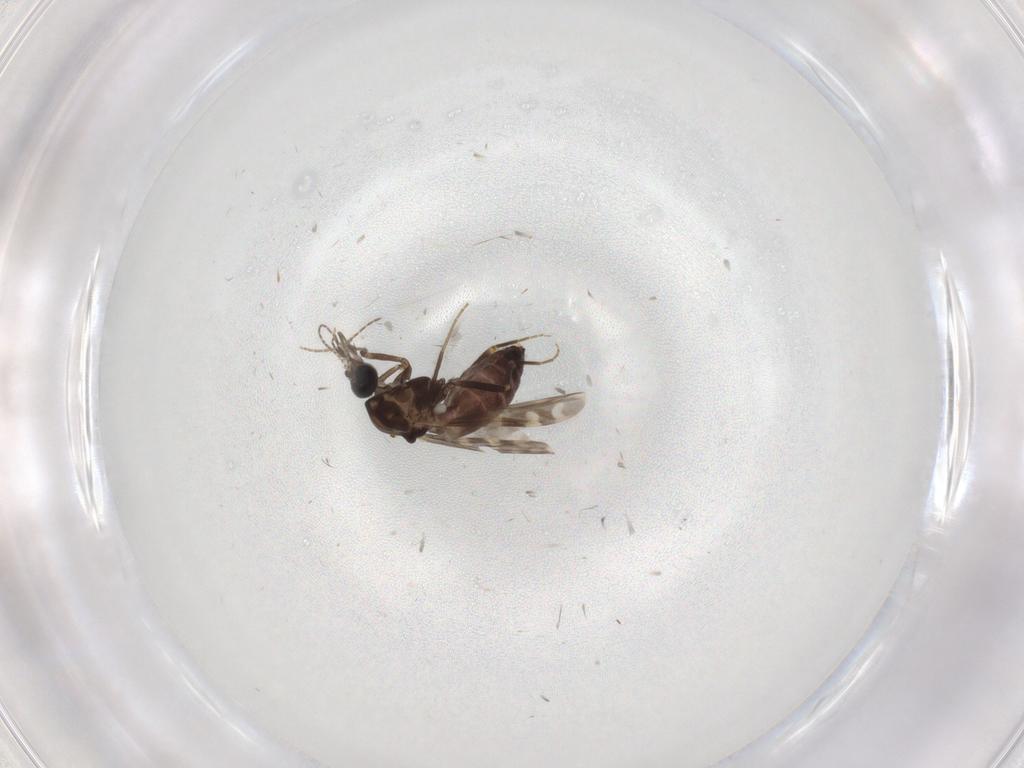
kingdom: Animalia
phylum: Arthropoda
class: Insecta
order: Diptera
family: Ceratopogonidae
